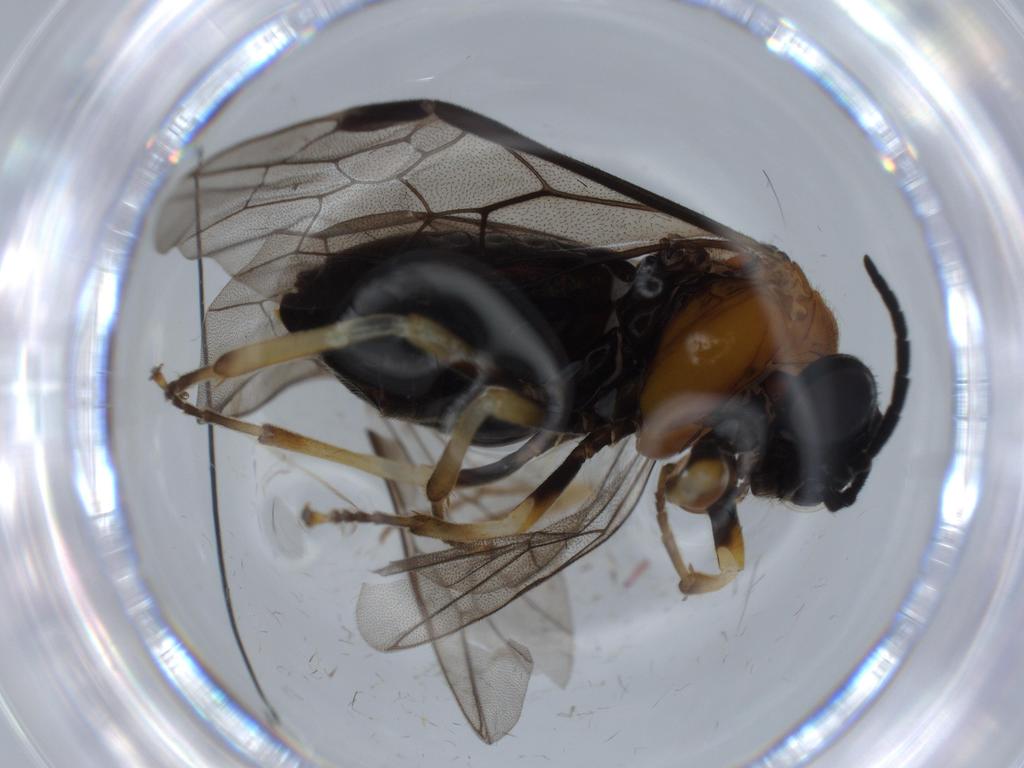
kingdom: Animalia
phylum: Arthropoda
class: Insecta
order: Hymenoptera
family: Tenthredinidae
